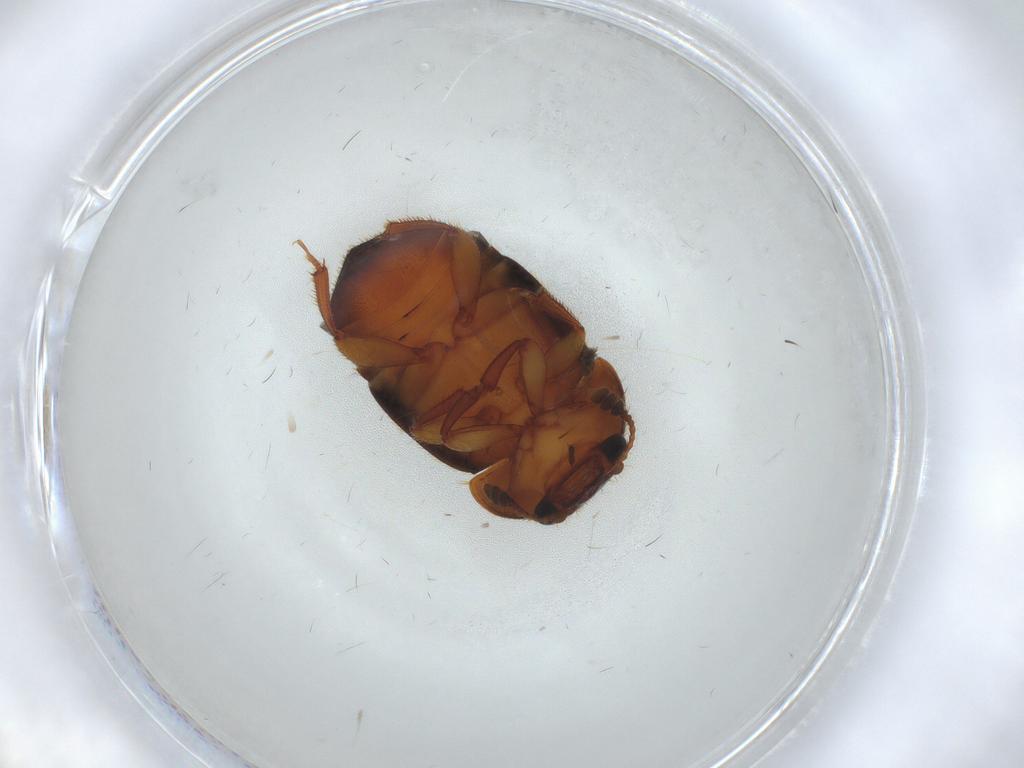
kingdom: Animalia
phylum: Arthropoda
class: Insecta
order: Coleoptera
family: Nitidulidae
